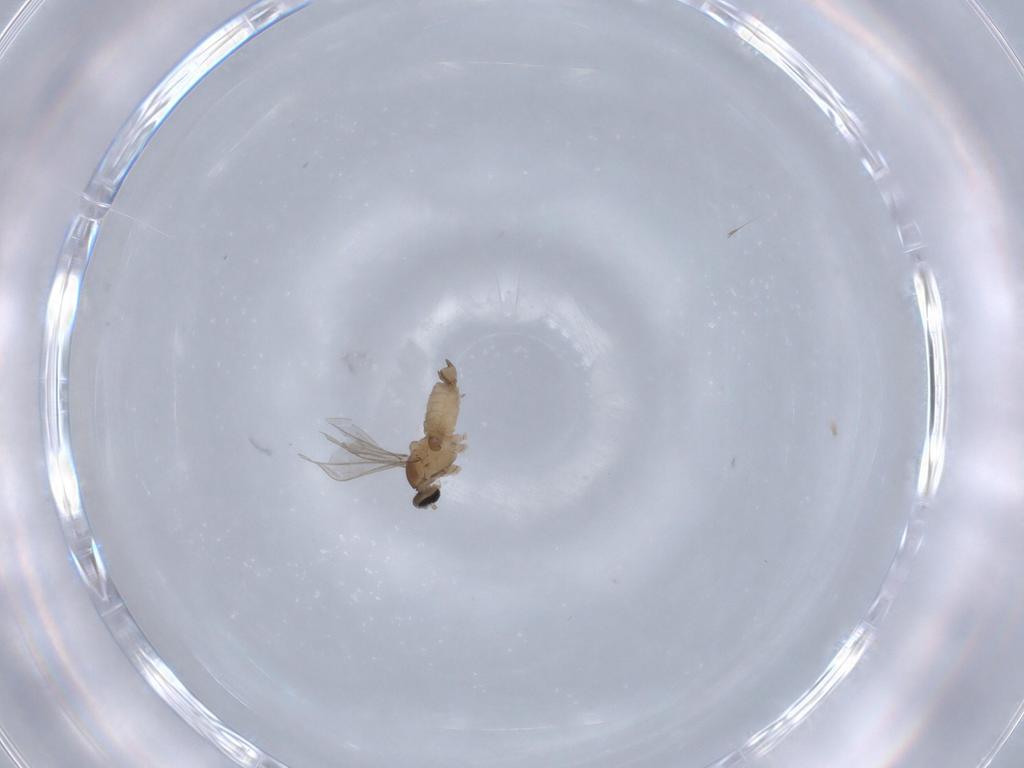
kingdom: Animalia
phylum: Arthropoda
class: Insecta
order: Diptera
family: Cecidomyiidae
